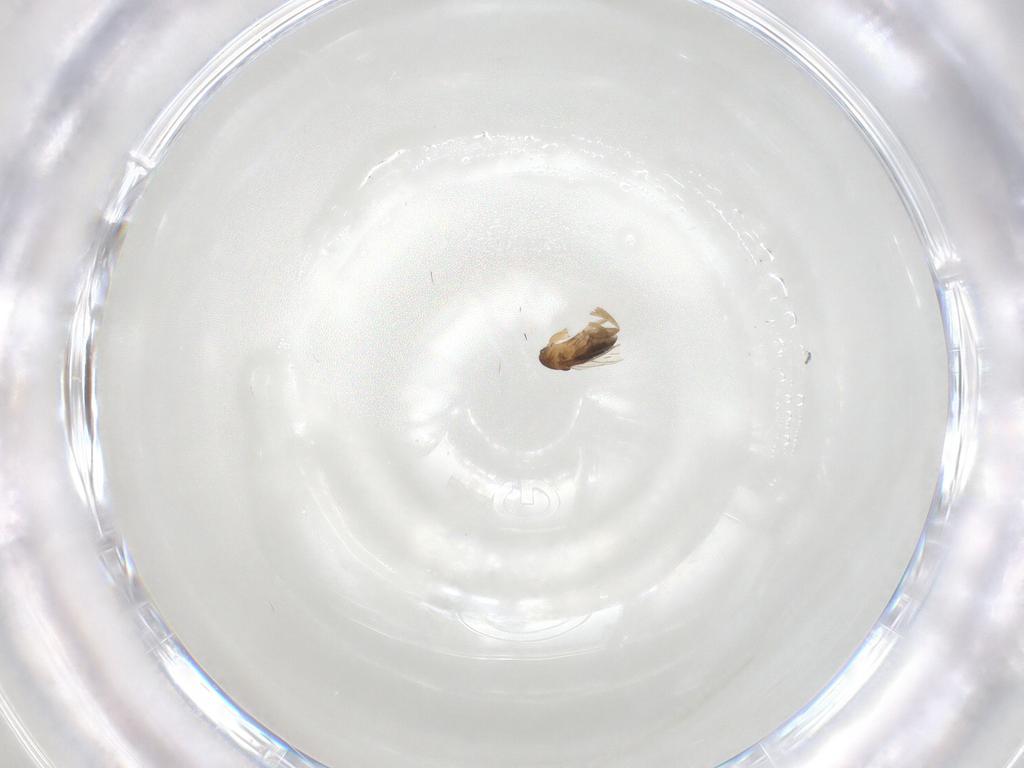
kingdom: Animalia
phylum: Arthropoda
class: Insecta
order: Diptera
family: Phoridae
